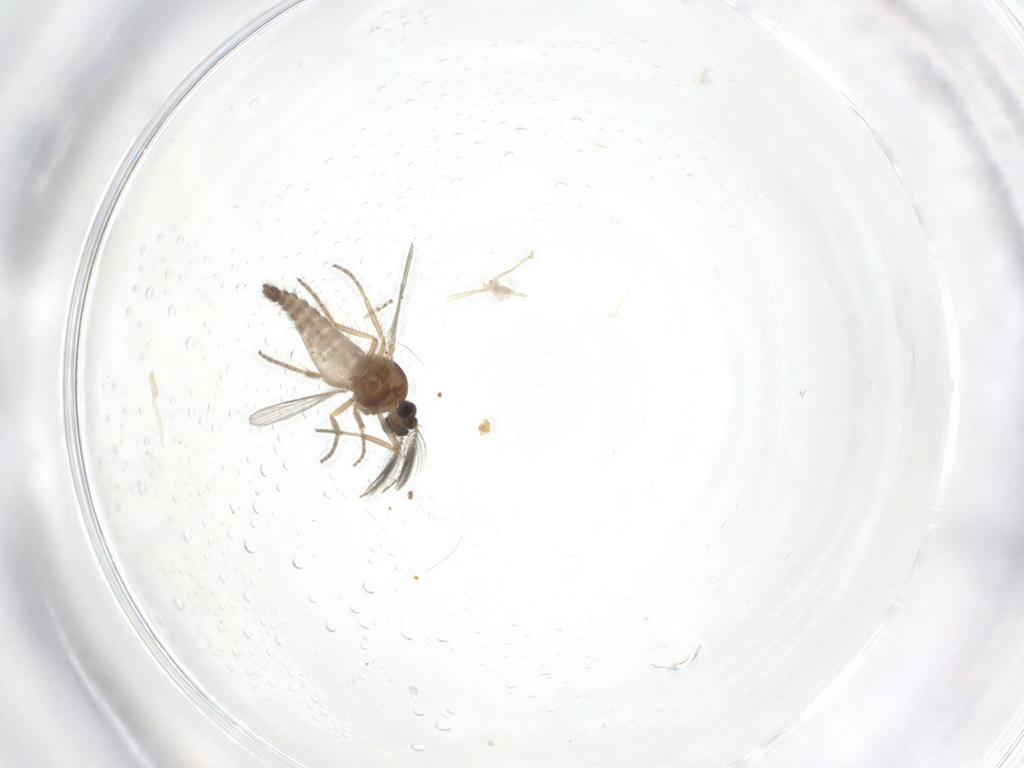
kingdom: Animalia
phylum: Arthropoda
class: Insecta
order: Diptera
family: Cecidomyiidae
